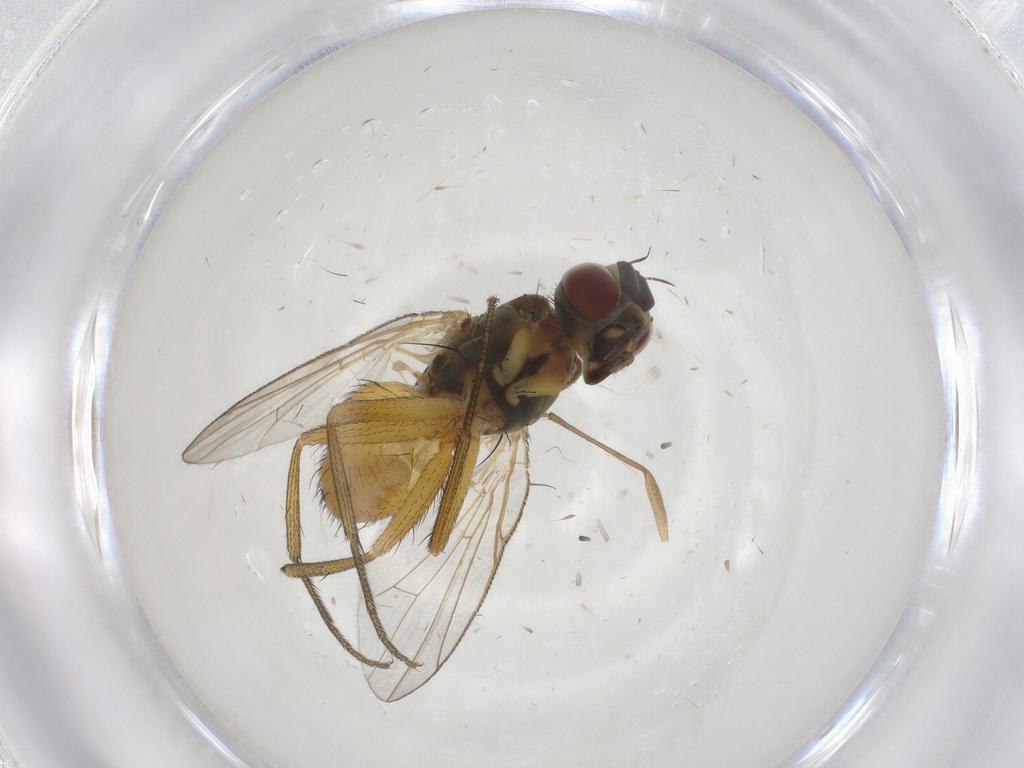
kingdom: Animalia
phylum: Arthropoda
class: Insecta
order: Diptera
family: Muscidae
